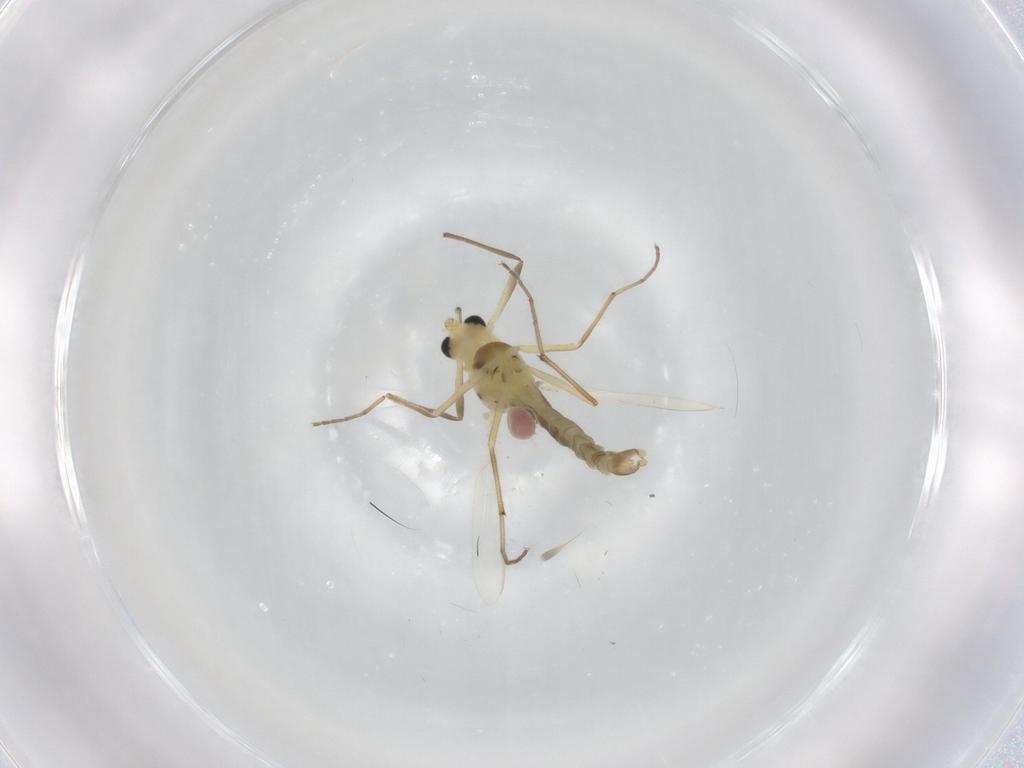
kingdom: Animalia
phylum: Arthropoda
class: Insecta
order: Diptera
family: Chironomidae
